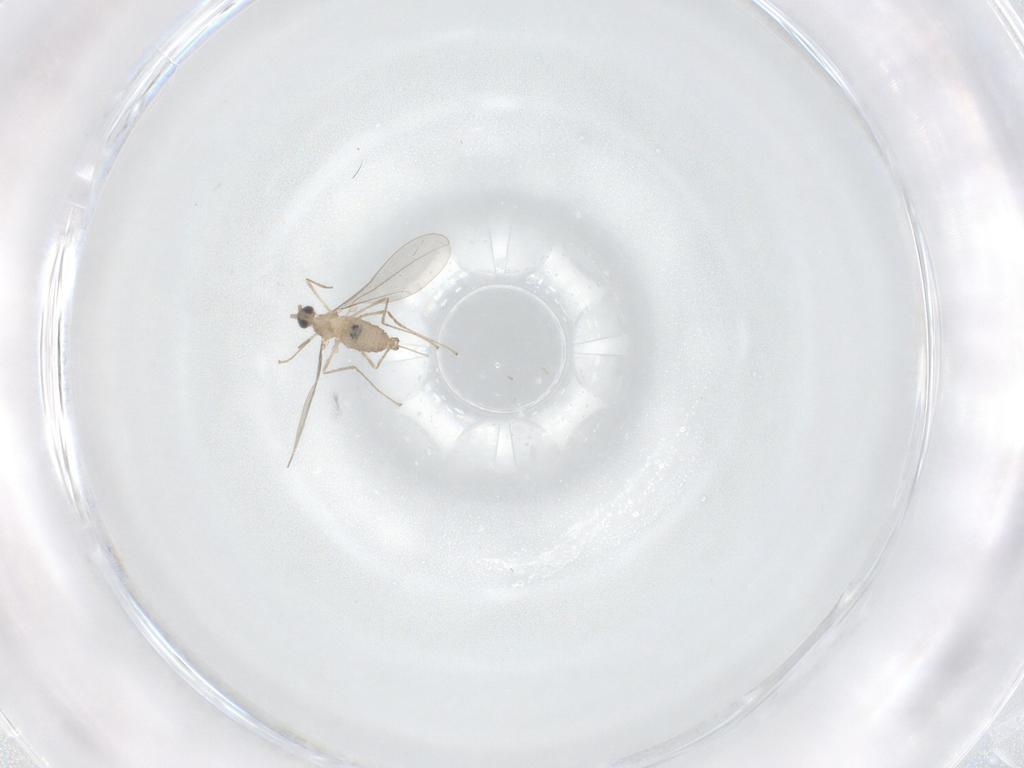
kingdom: Animalia
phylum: Arthropoda
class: Insecta
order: Diptera
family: Cecidomyiidae
